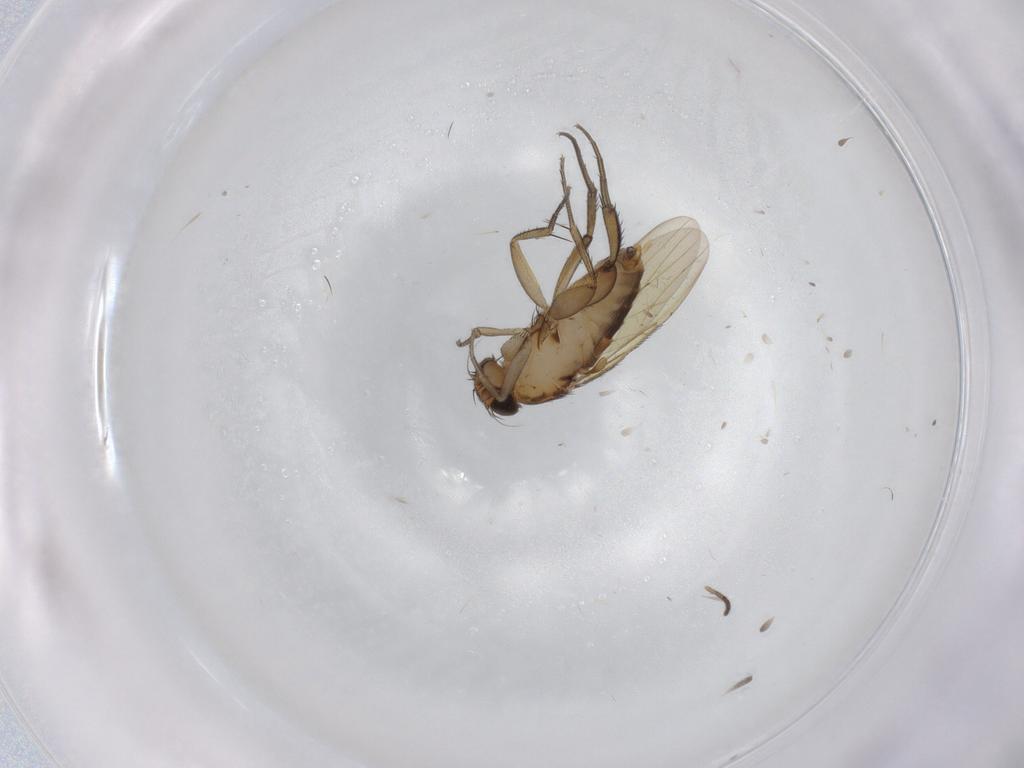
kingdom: Animalia
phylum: Arthropoda
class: Insecta
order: Diptera
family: Phoridae
